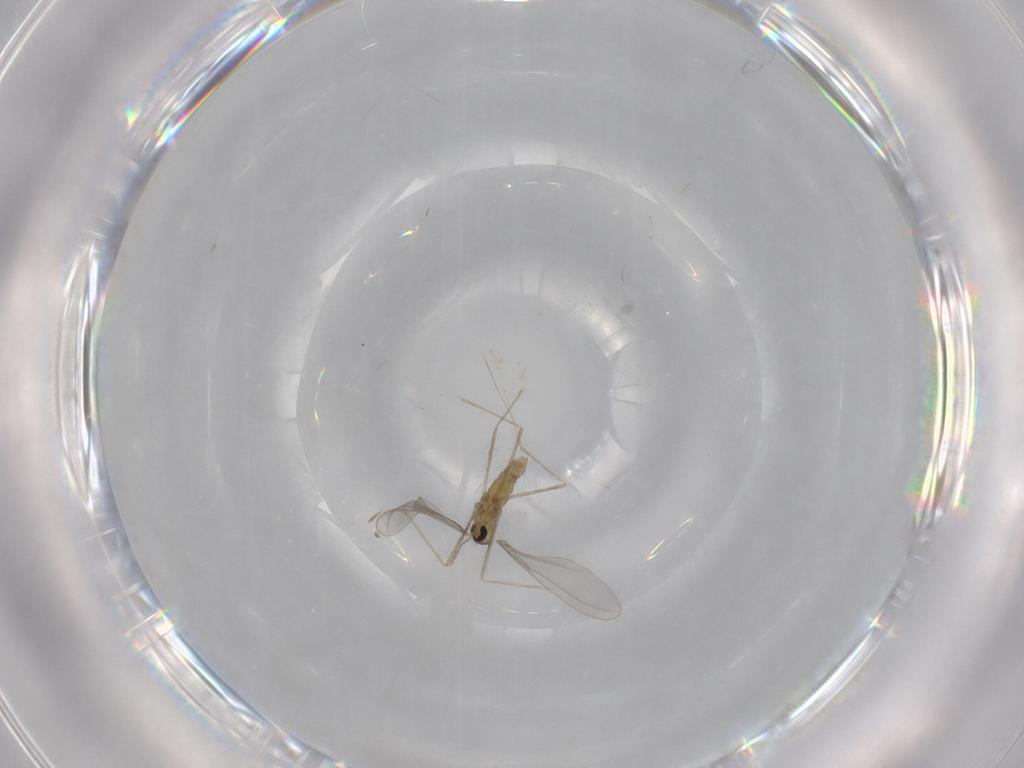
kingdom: Animalia
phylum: Arthropoda
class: Insecta
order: Diptera
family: Cecidomyiidae
